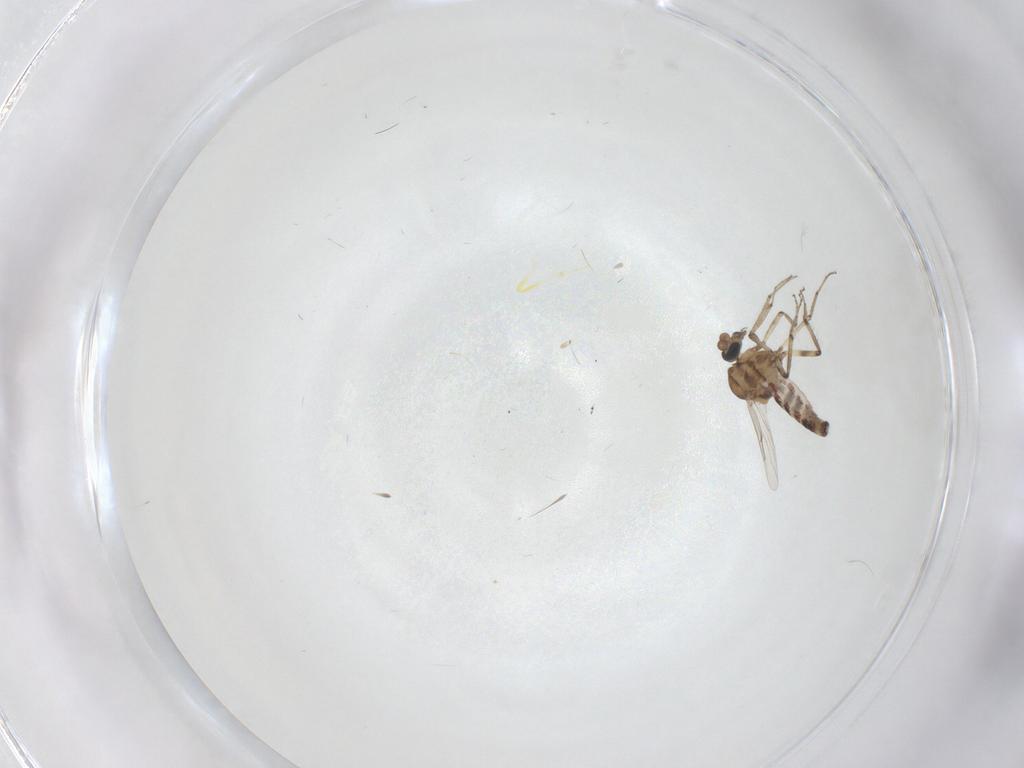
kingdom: Animalia
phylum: Arthropoda
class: Insecta
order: Diptera
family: Ceratopogonidae
